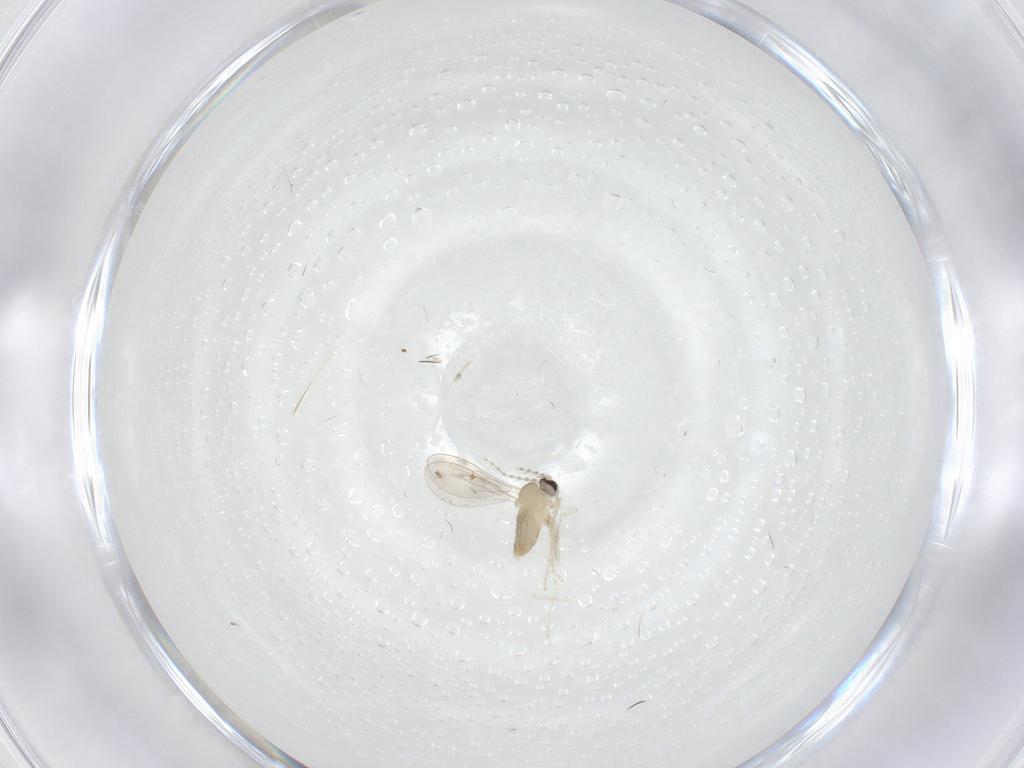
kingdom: Animalia
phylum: Arthropoda
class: Insecta
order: Diptera
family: Cecidomyiidae
